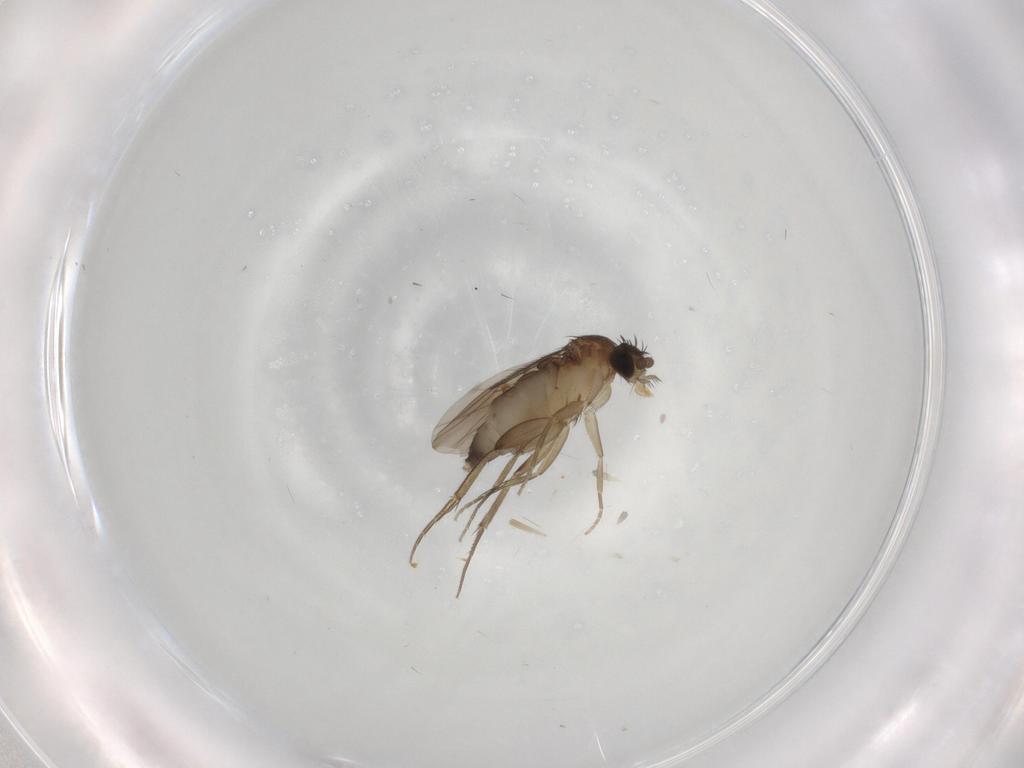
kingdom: Animalia
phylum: Arthropoda
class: Insecta
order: Diptera
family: Phoridae
